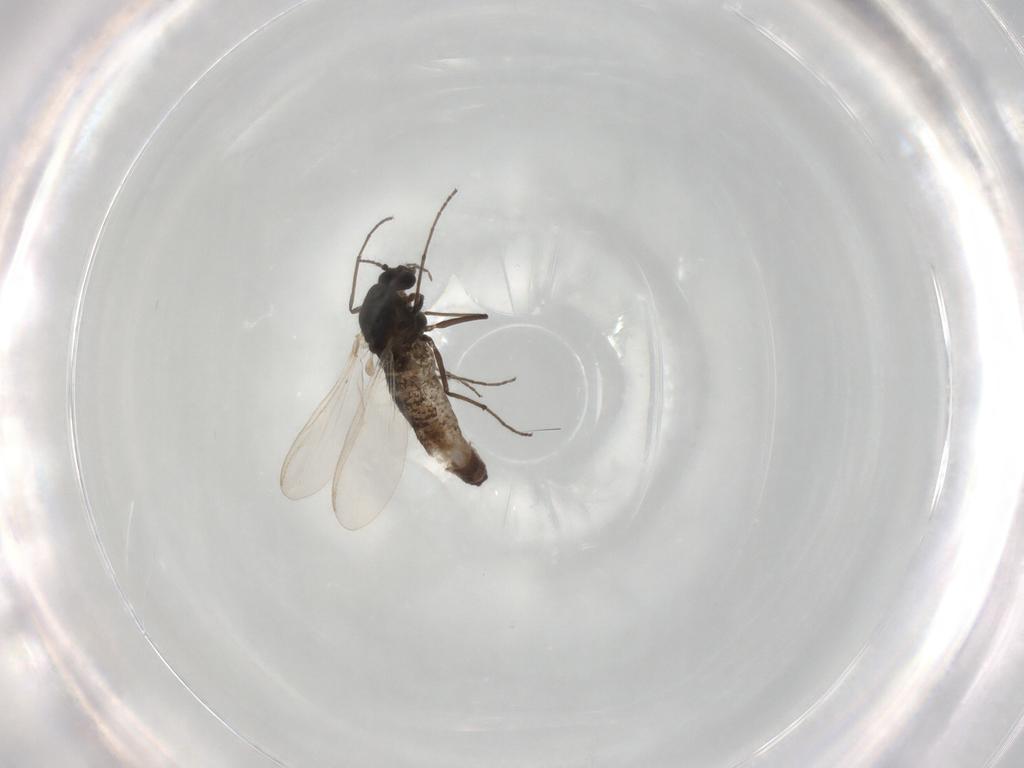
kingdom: Animalia
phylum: Arthropoda
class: Insecta
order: Diptera
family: Chironomidae
